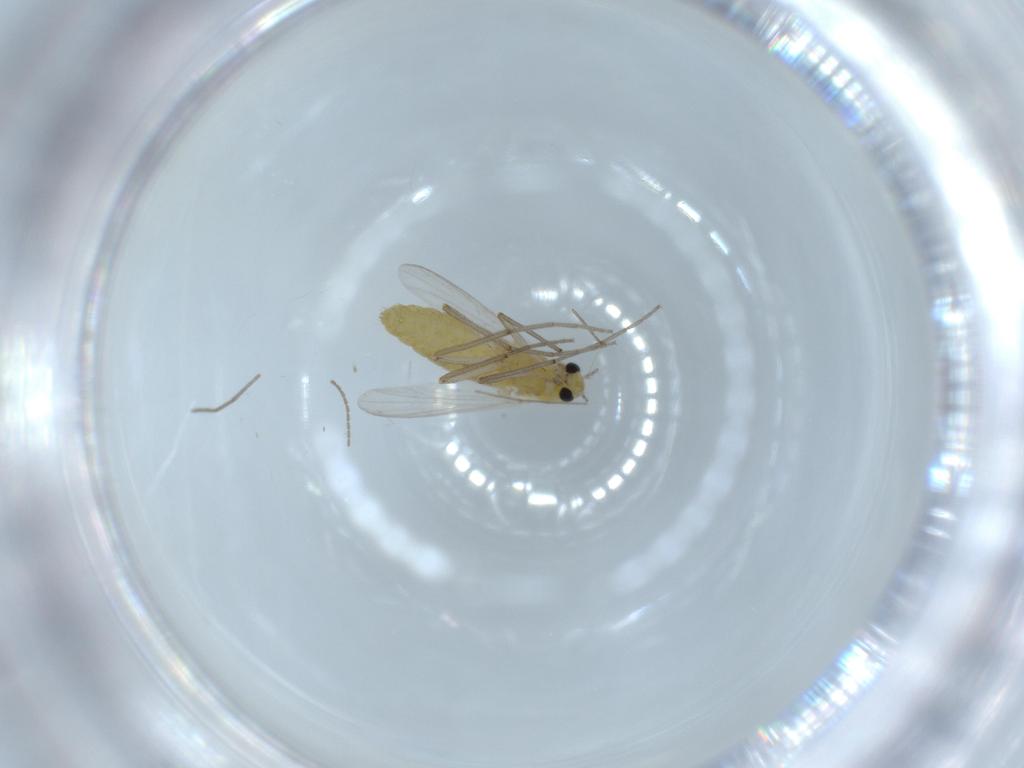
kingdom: Animalia
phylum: Arthropoda
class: Insecta
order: Diptera
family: Chironomidae
